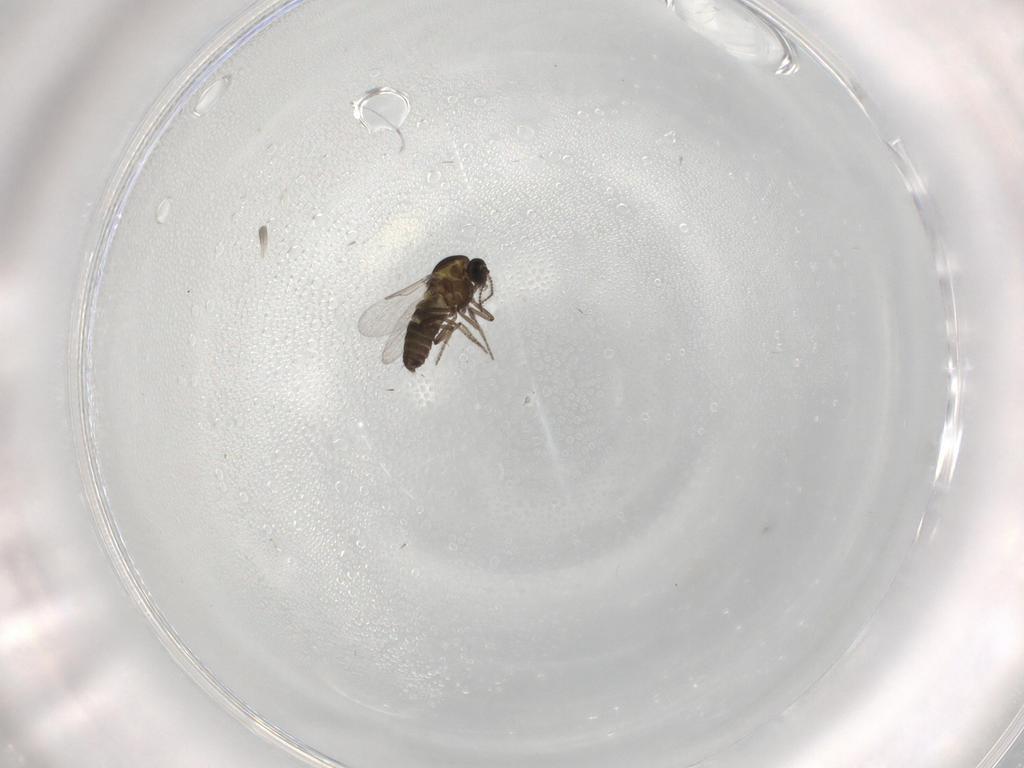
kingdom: Animalia
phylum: Arthropoda
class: Insecta
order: Diptera
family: Ceratopogonidae
